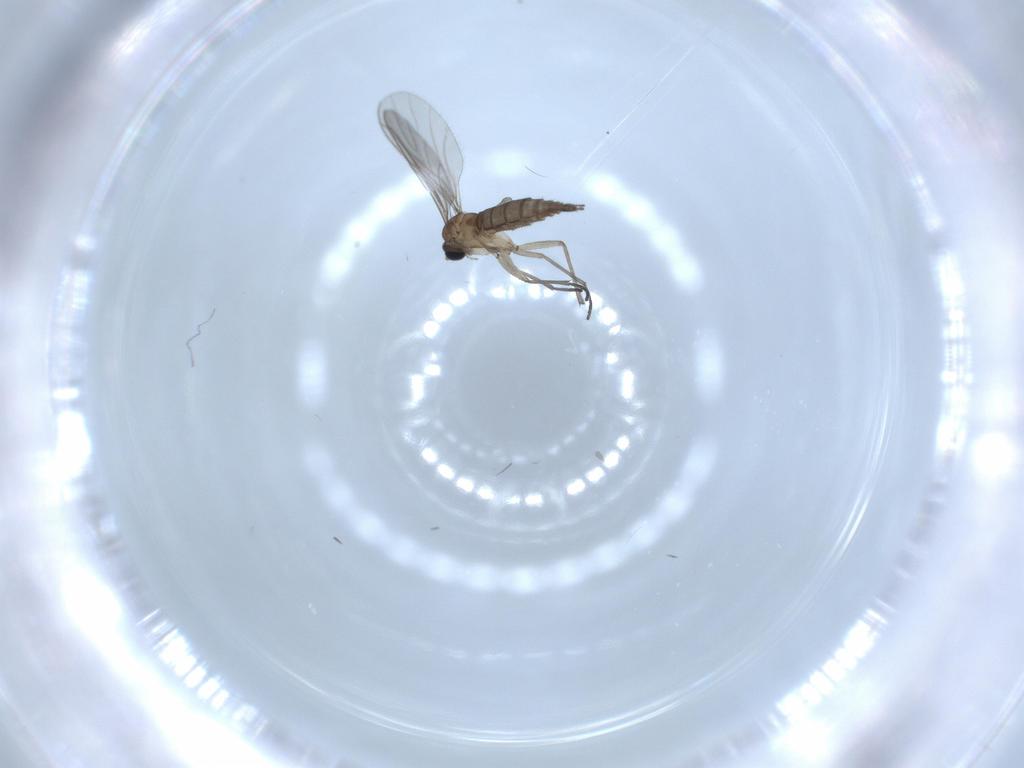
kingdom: Animalia
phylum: Arthropoda
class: Insecta
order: Diptera
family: Sciaridae
